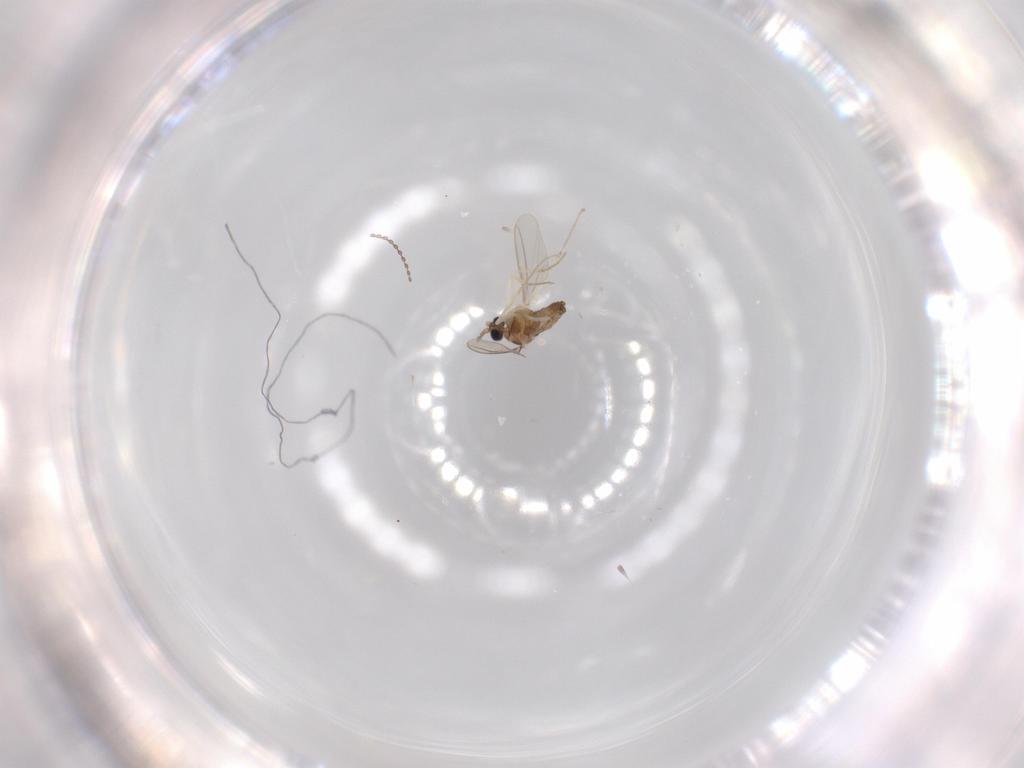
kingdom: Animalia
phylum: Arthropoda
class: Insecta
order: Diptera
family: Cecidomyiidae
